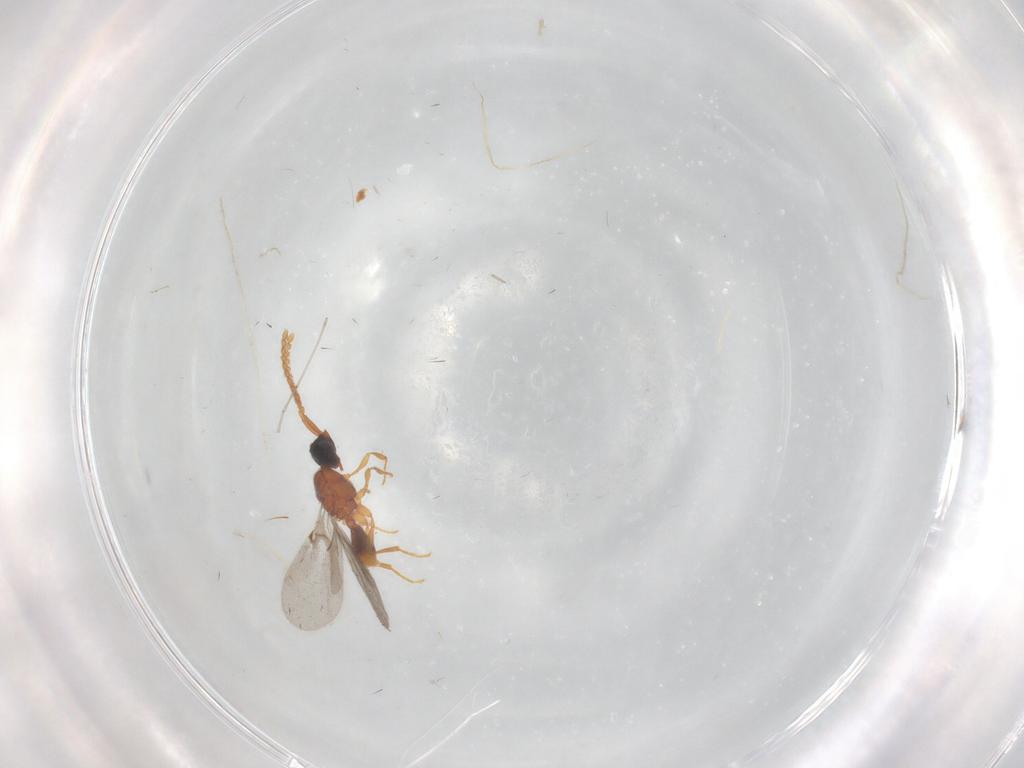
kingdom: Animalia
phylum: Arthropoda
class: Insecta
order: Hymenoptera
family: Diapriidae
